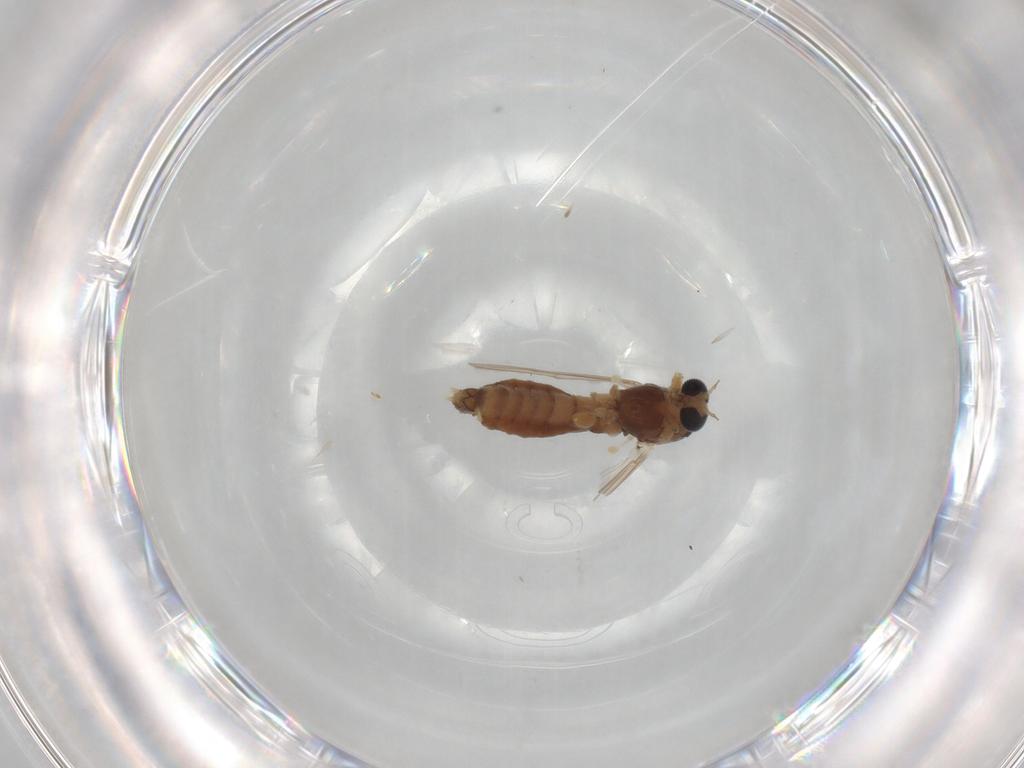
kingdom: Animalia
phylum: Arthropoda
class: Insecta
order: Diptera
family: Chironomidae
